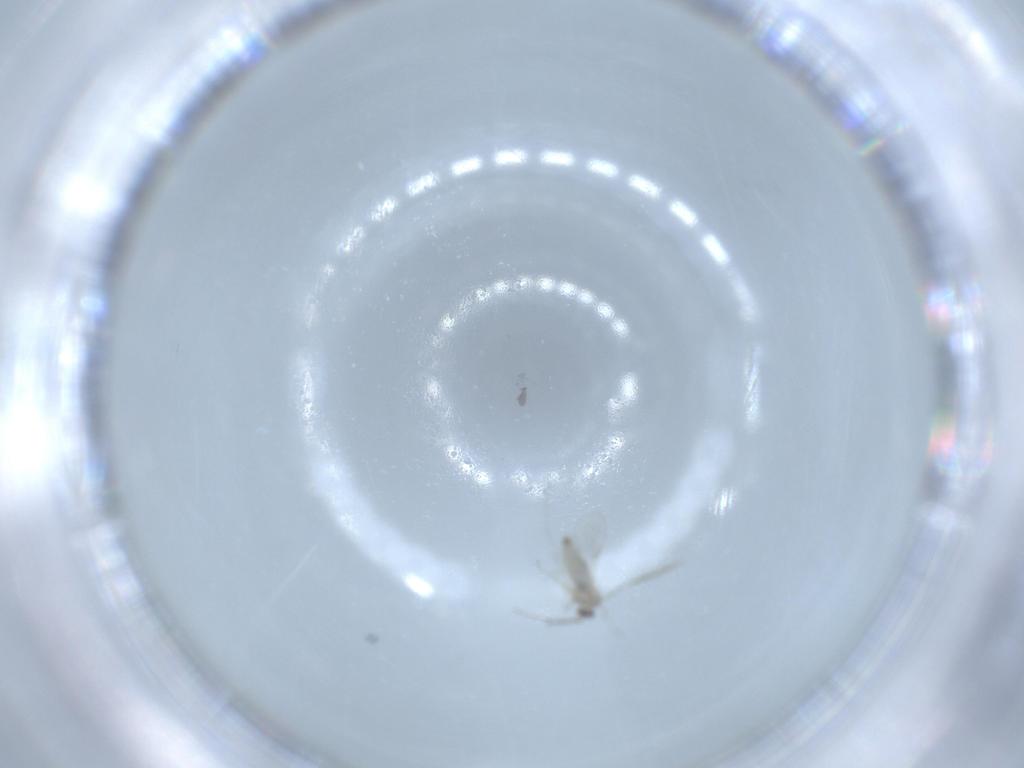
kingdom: Animalia
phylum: Arthropoda
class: Insecta
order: Diptera
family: Cecidomyiidae
